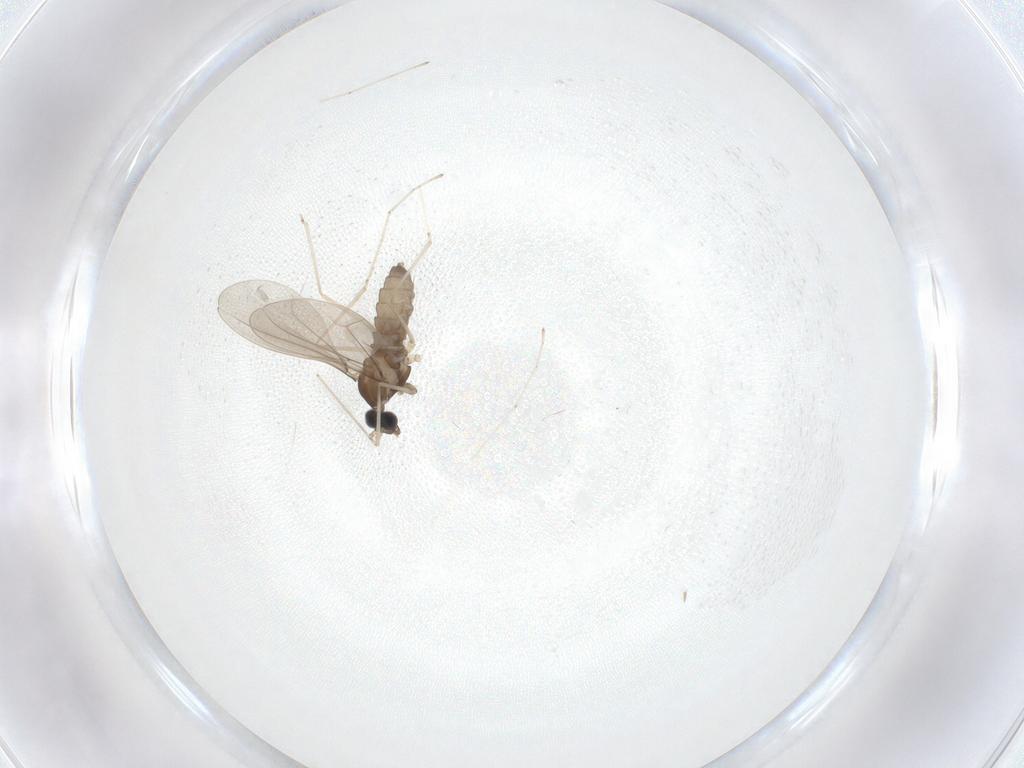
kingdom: Animalia
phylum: Arthropoda
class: Insecta
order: Diptera
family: Cecidomyiidae
